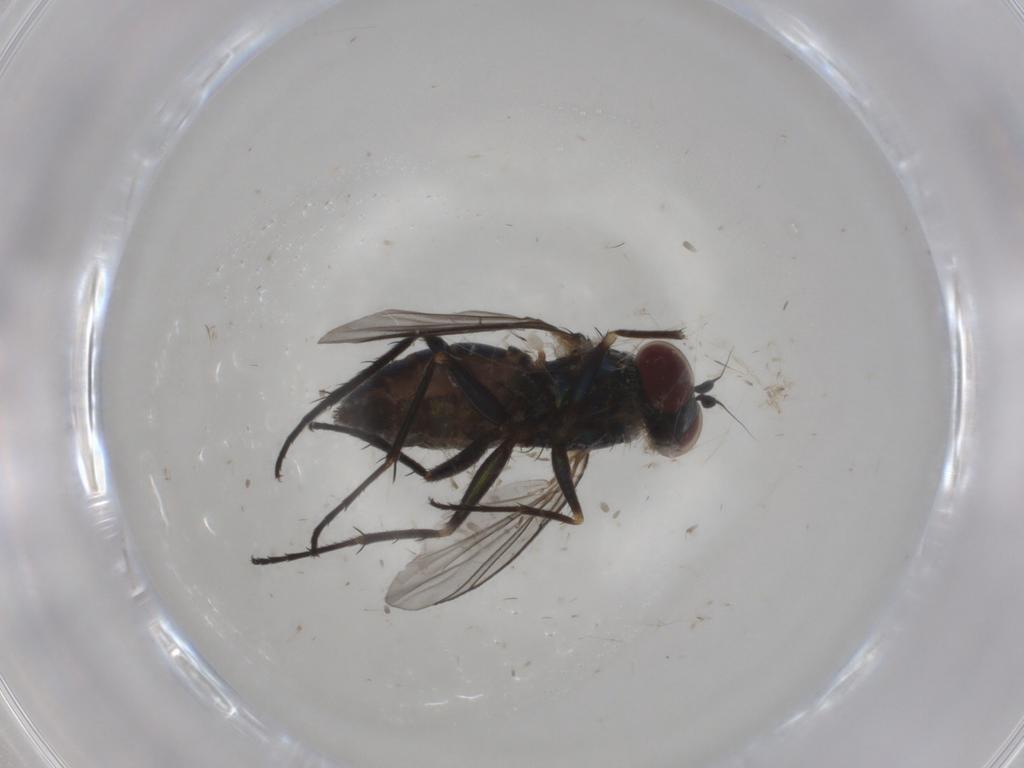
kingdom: Animalia
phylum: Arthropoda
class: Insecta
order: Diptera
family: Dolichopodidae
